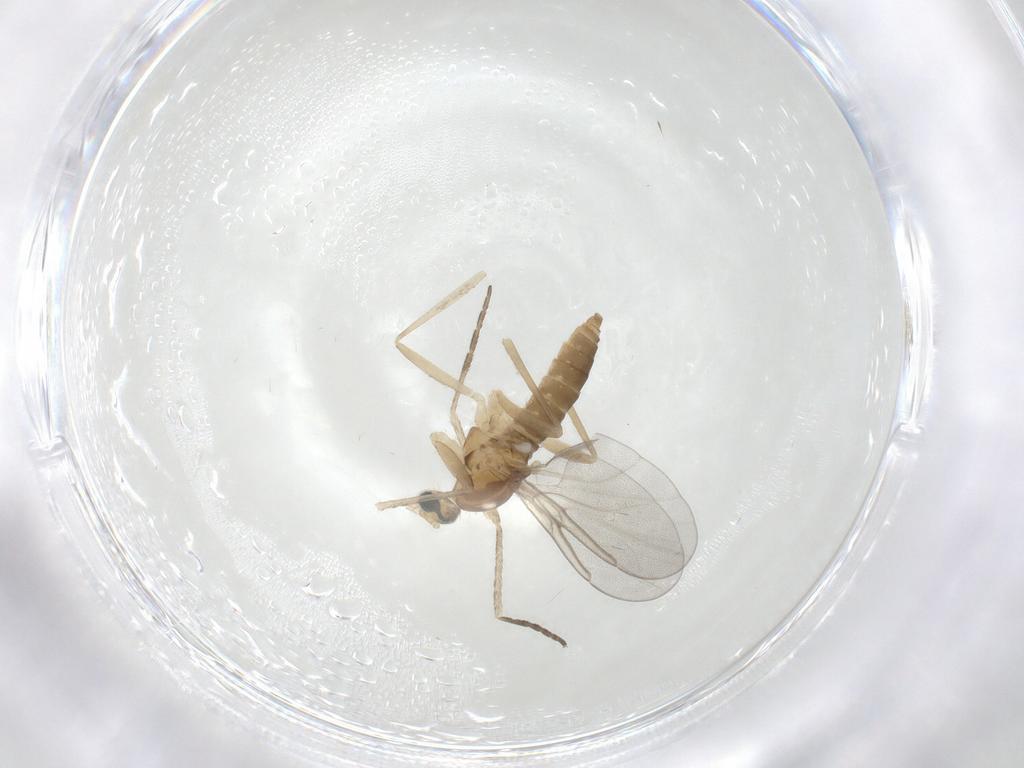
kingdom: Animalia
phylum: Arthropoda
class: Insecta
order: Diptera
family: Cecidomyiidae
